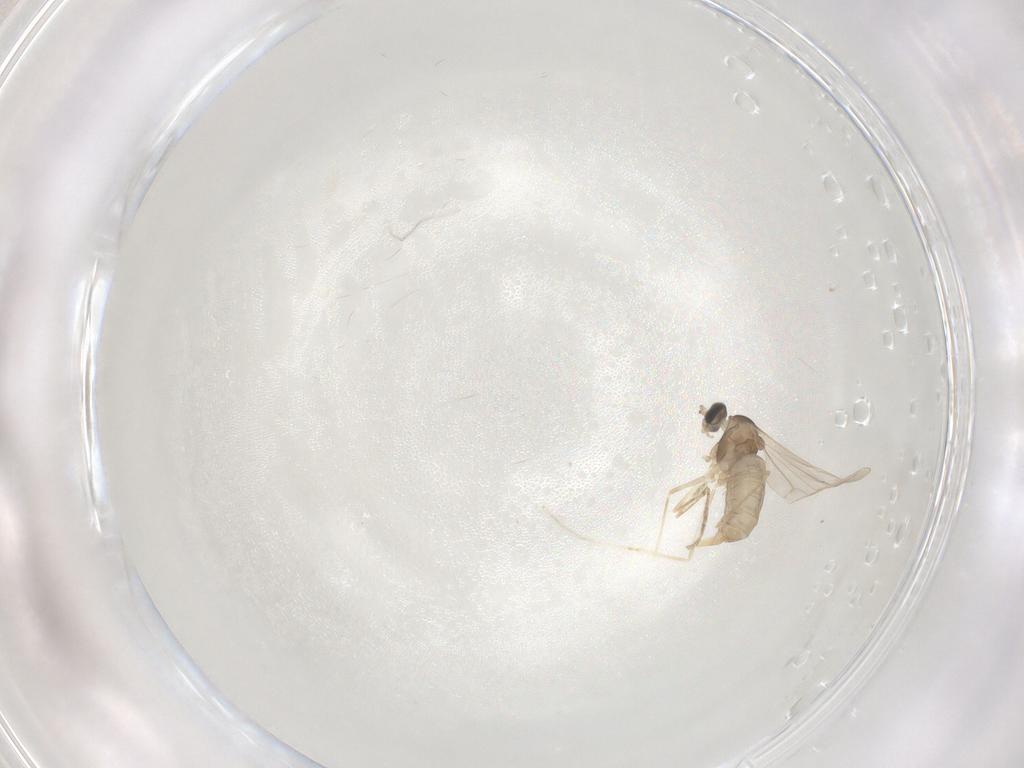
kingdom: Animalia
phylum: Arthropoda
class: Insecta
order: Diptera
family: Cecidomyiidae
